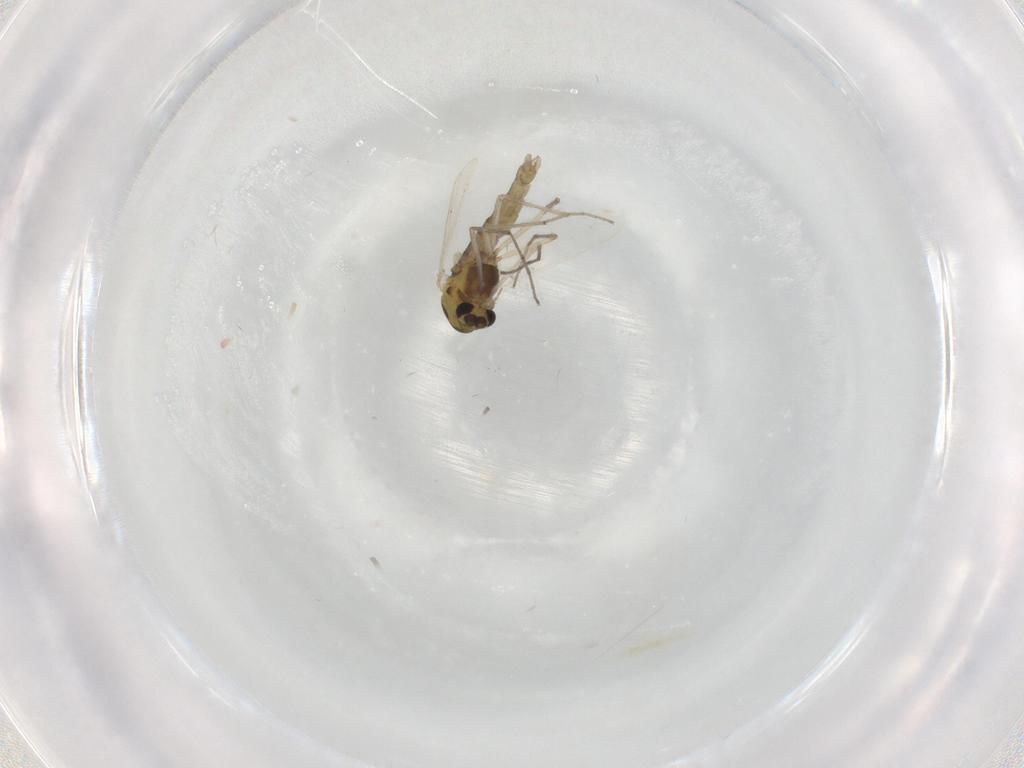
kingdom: Animalia
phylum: Arthropoda
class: Insecta
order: Diptera
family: Chironomidae
